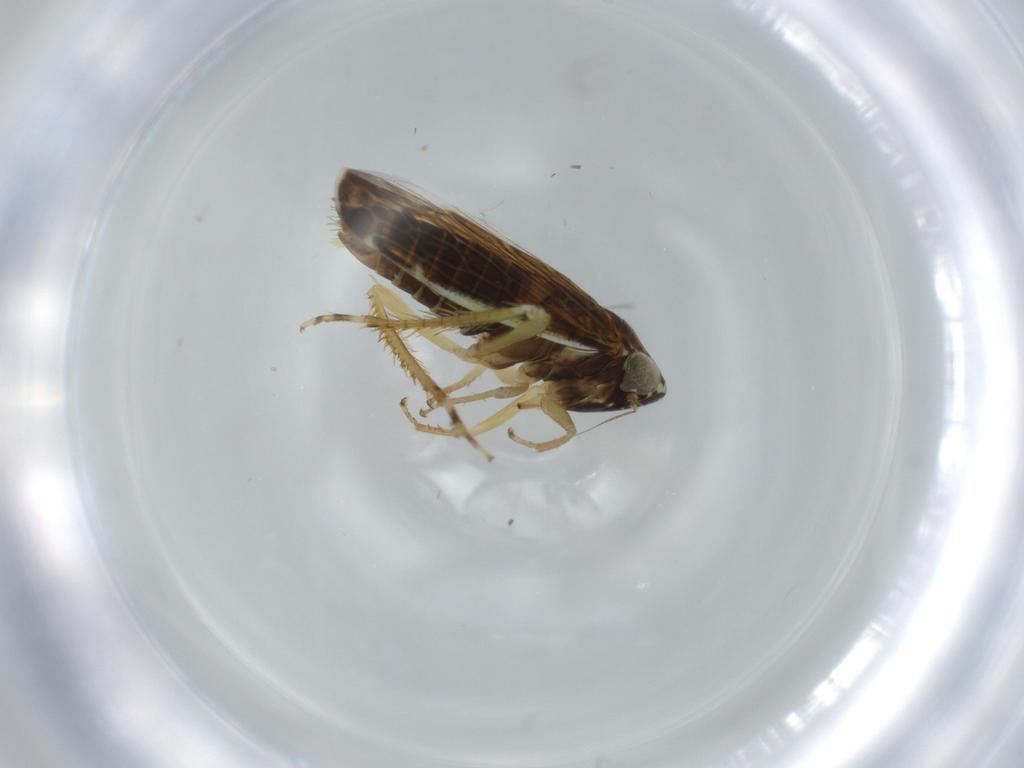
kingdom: Animalia
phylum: Arthropoda
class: Insecta
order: Hemiptera
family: Cicadellidae
